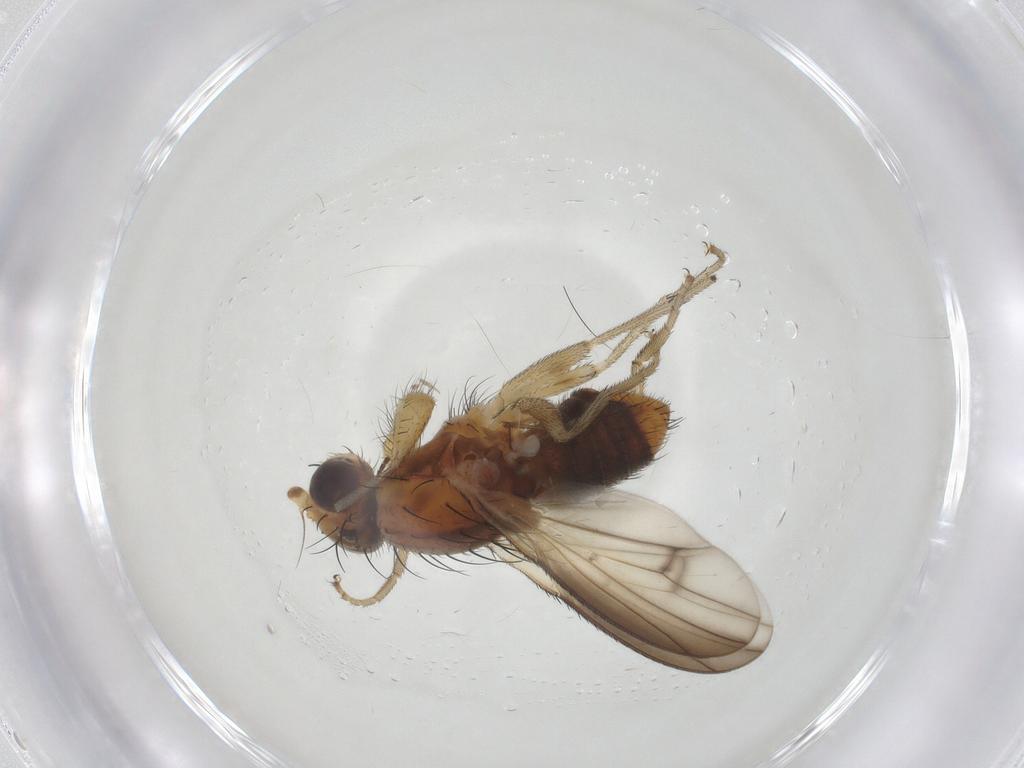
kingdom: Animalia
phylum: Arthropoda
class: Insecta
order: Diptera
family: Heleomyzidae
